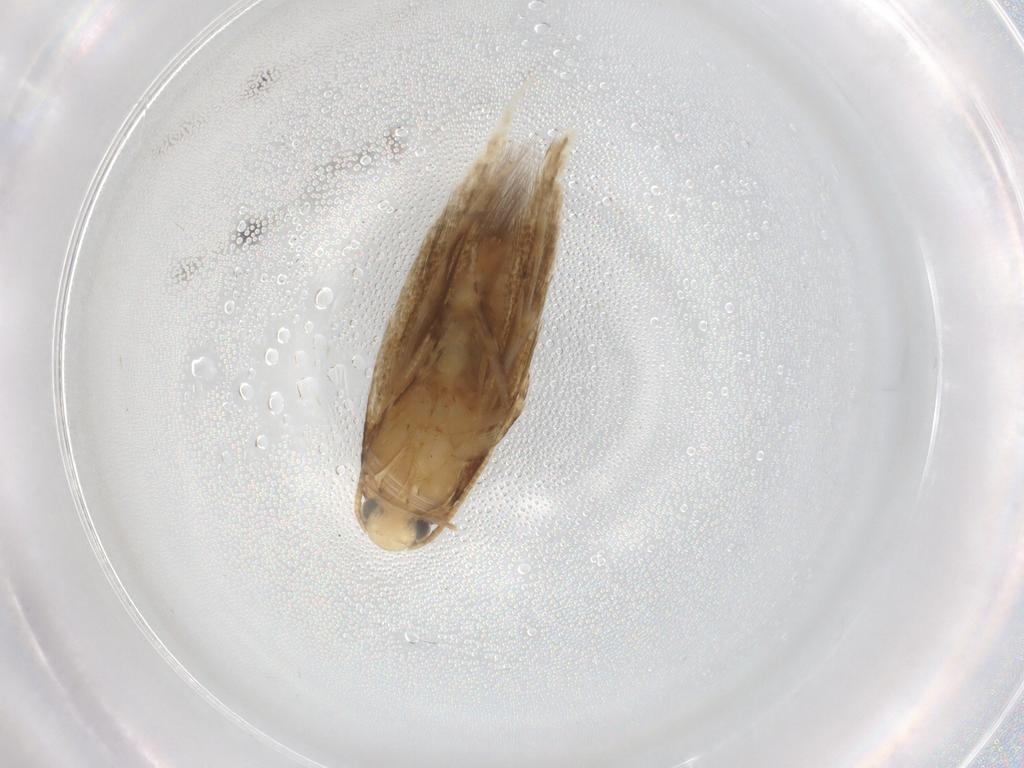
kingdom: Animalia
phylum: Arthropoda
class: Insecta
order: Lepidoptera
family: Tineidae
